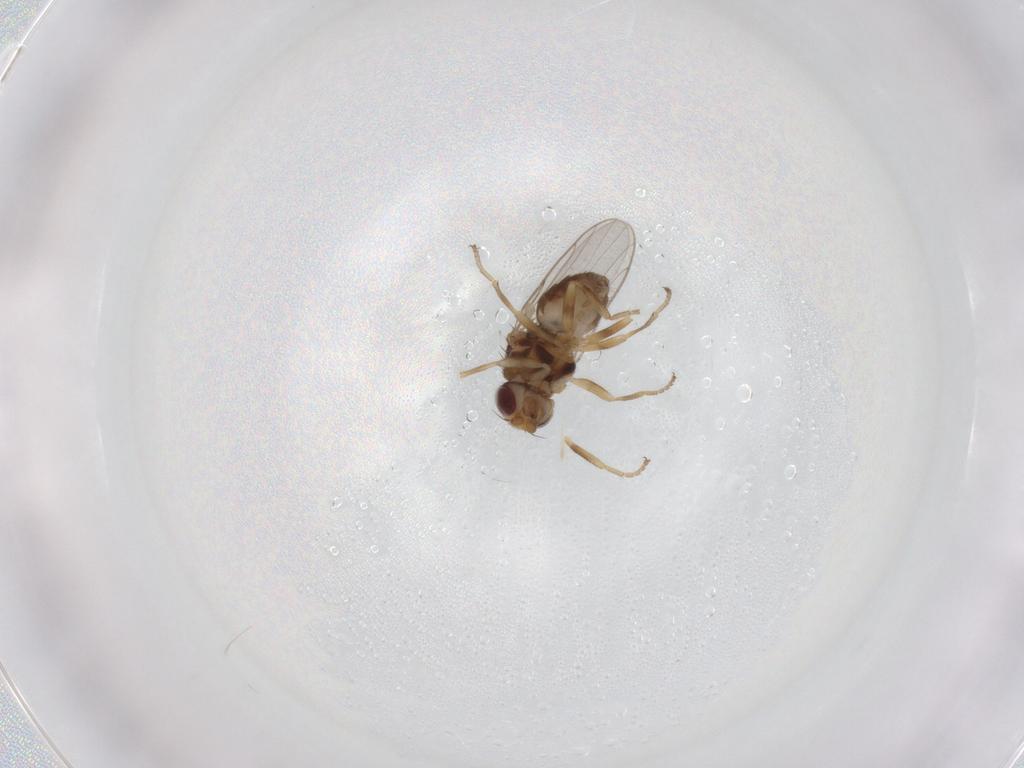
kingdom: Animalia
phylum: Arthropoda
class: Insecta
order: Diptera
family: Chloropidae
